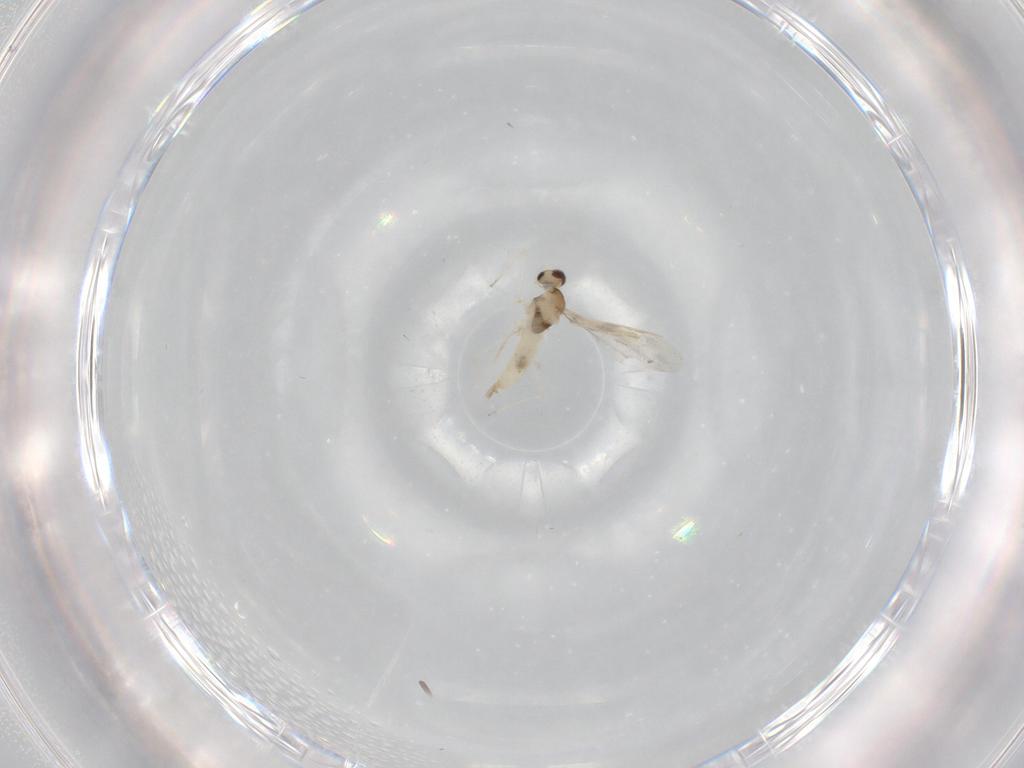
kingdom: Animalia
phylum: Arthropoda
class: Insecta
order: Diptera
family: Cecidomyiidae
